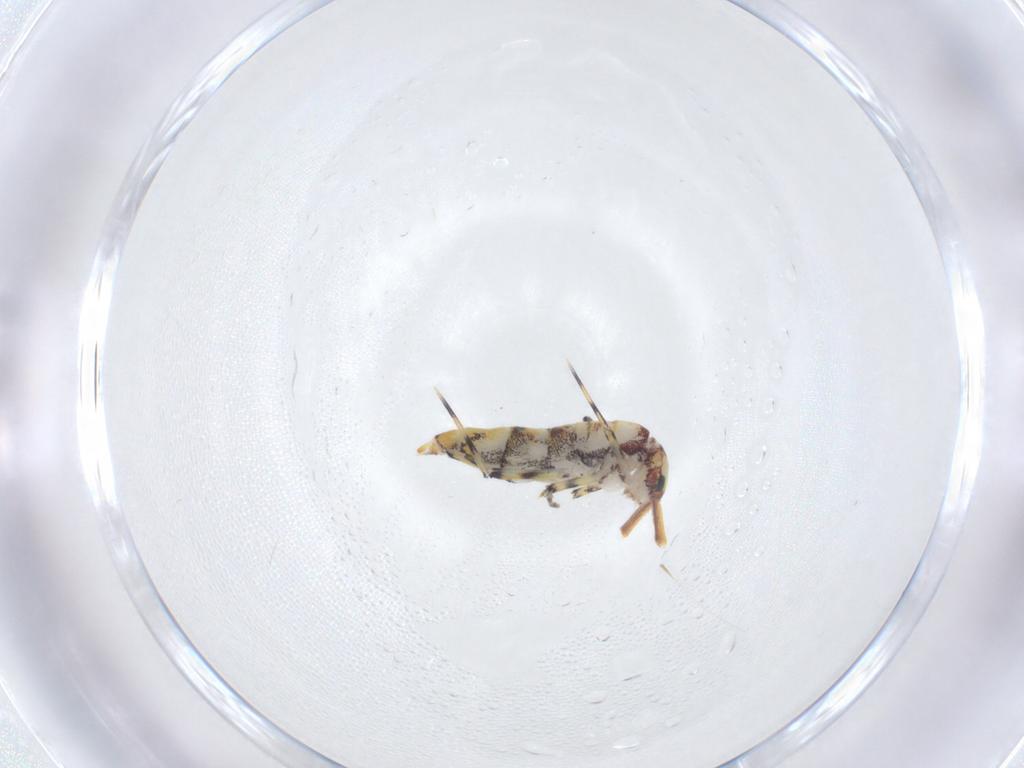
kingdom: Animalia
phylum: Arthropoda
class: Collembola
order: Entomobryomorpha
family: Entomobryidae
